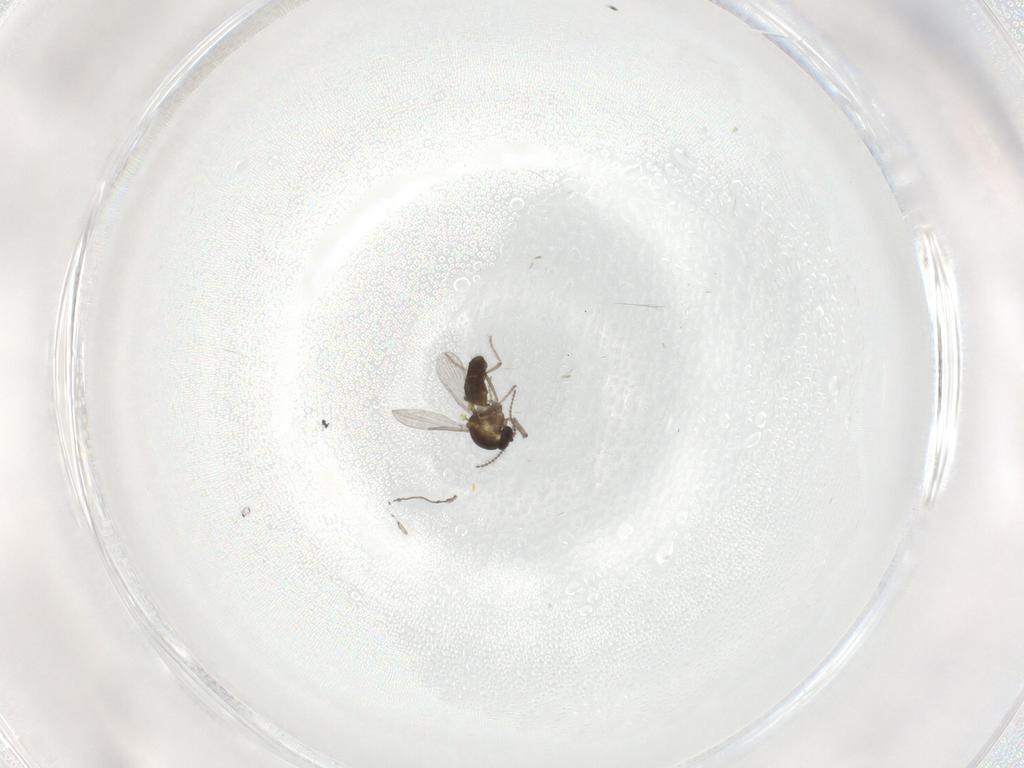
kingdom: Animalia
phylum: Arthropoda
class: Insecta
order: Diptera
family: Ceratopogonidae
